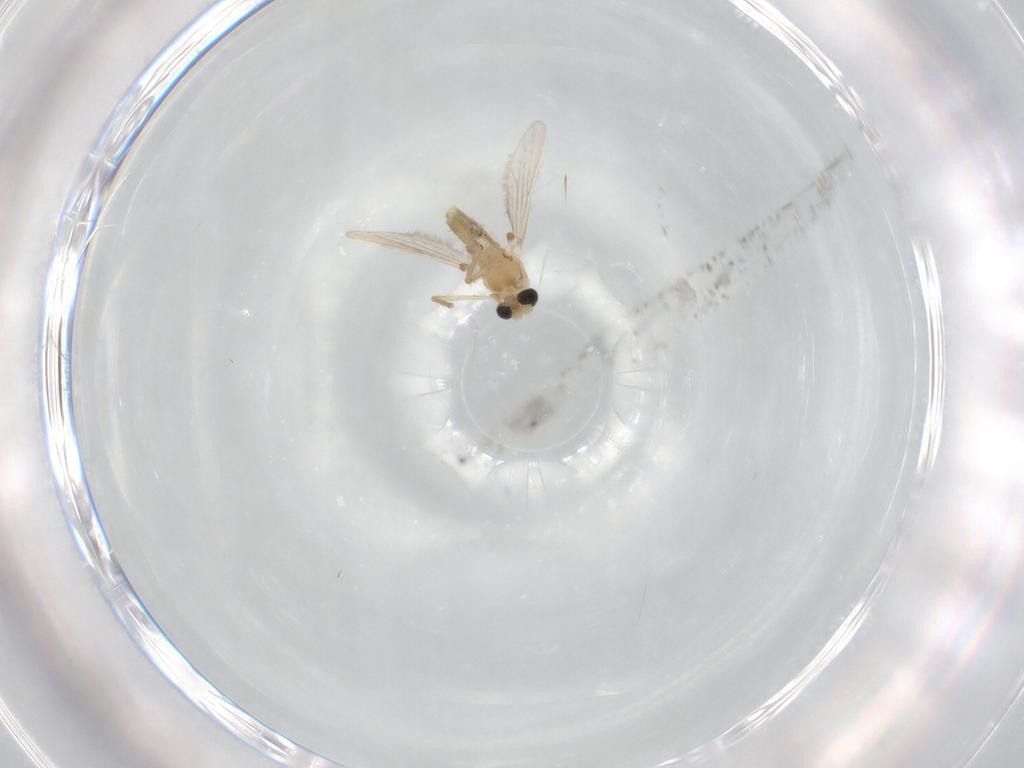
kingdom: Animalia
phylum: Arthropoda
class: Insecta
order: Diptera
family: Chironomidae
